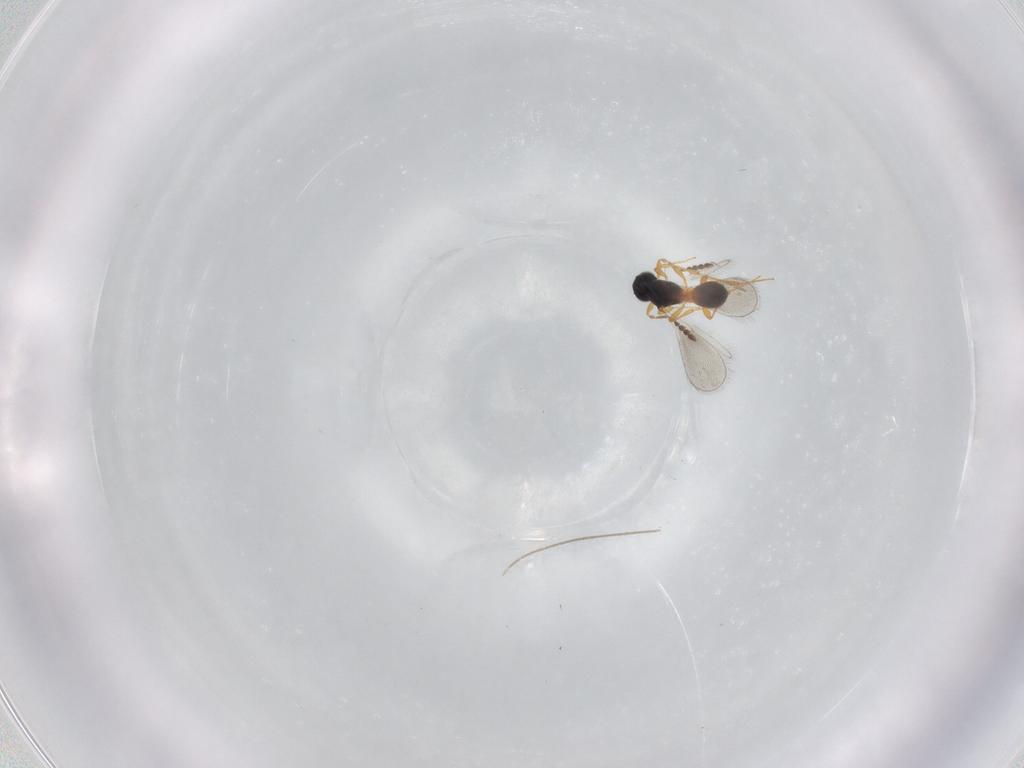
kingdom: Animalia
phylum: Arthropoda
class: Insecta
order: Hymenoptera
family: Platygastridae
